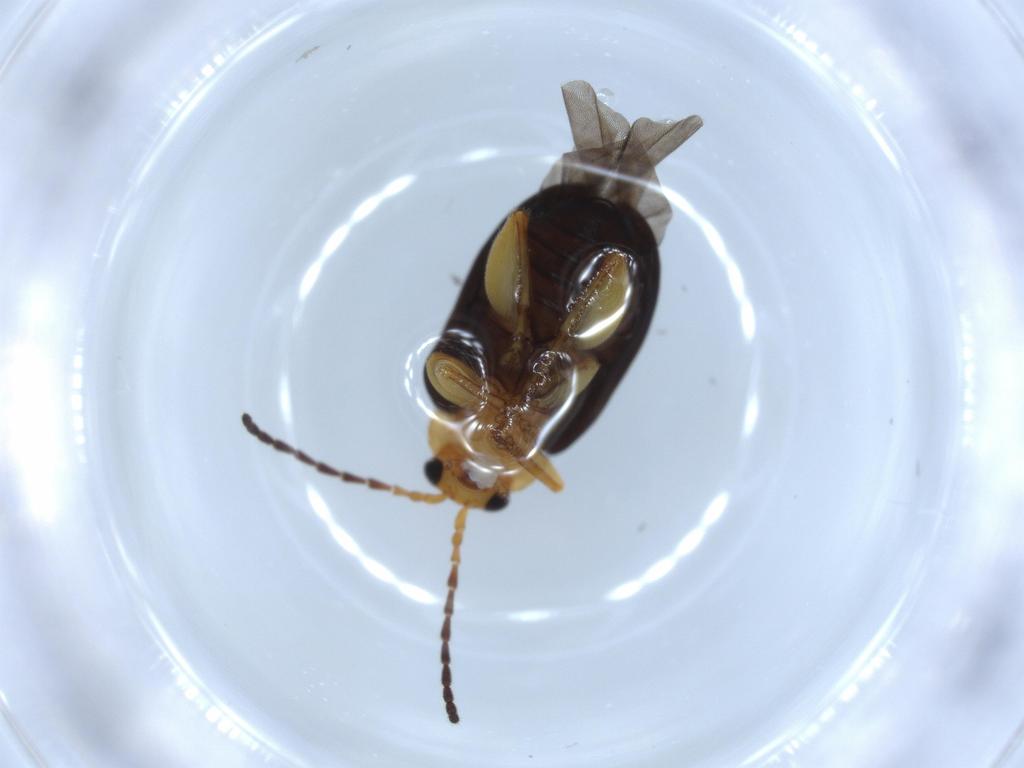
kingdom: Animalia
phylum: Arthropoda
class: Insecta
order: Coleoptera
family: Chrysomelidae
